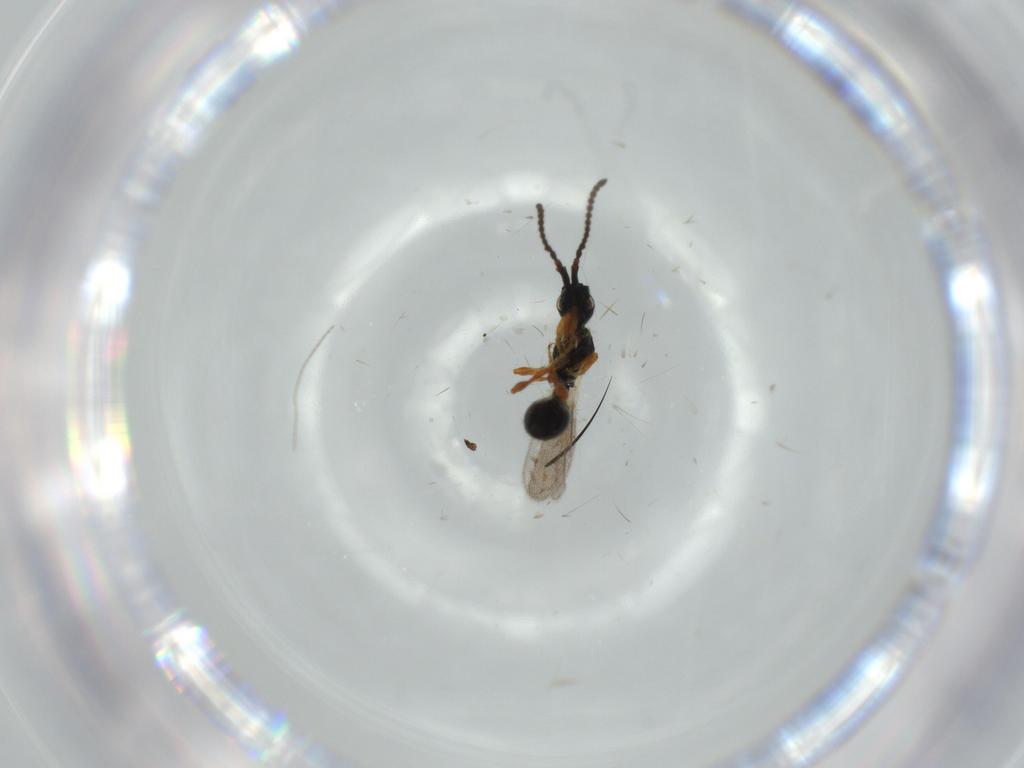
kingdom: Animalia
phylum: Arthropoda
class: Insecta
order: Hymenoptera
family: Diapriidae
